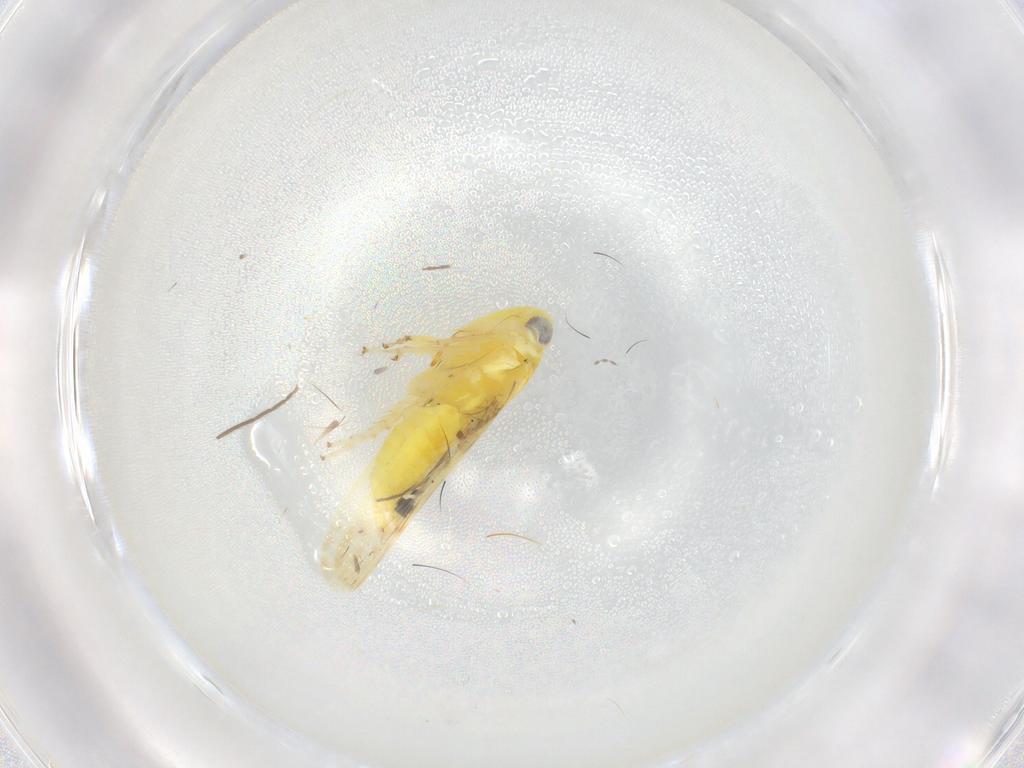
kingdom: Animalia
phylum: Arthropoda
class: Insecta
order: Hemiptera
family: Cicadellidae
